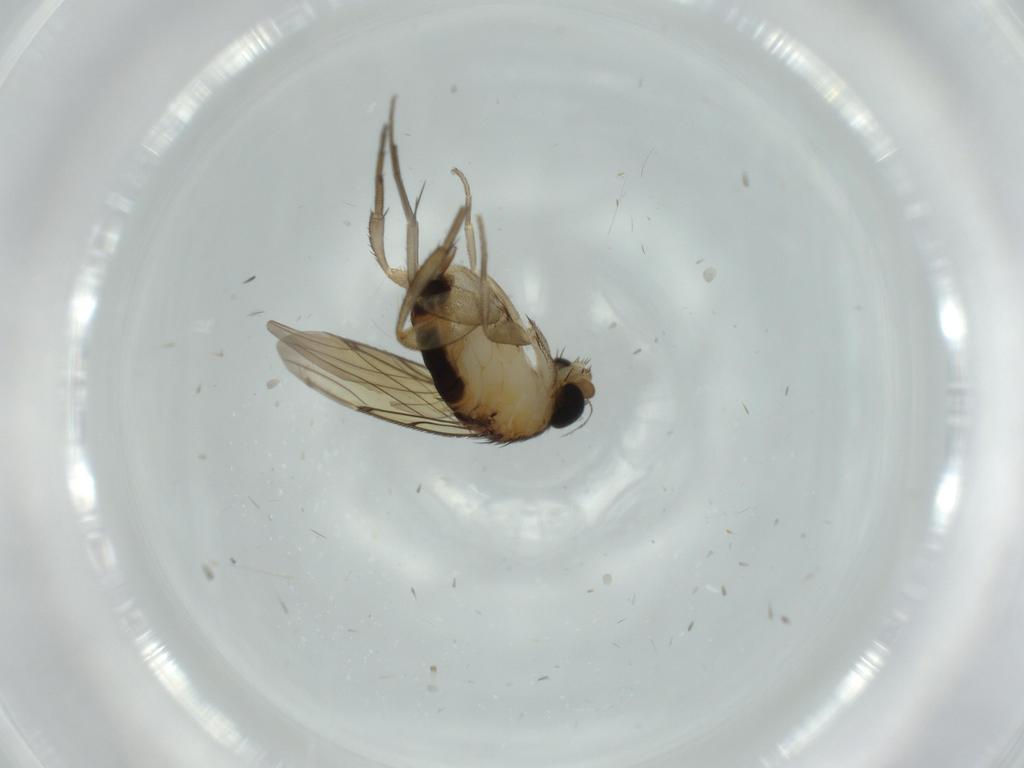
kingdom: Animalia
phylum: Arthropoda
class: Insecta
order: Diptera
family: Phoridae
